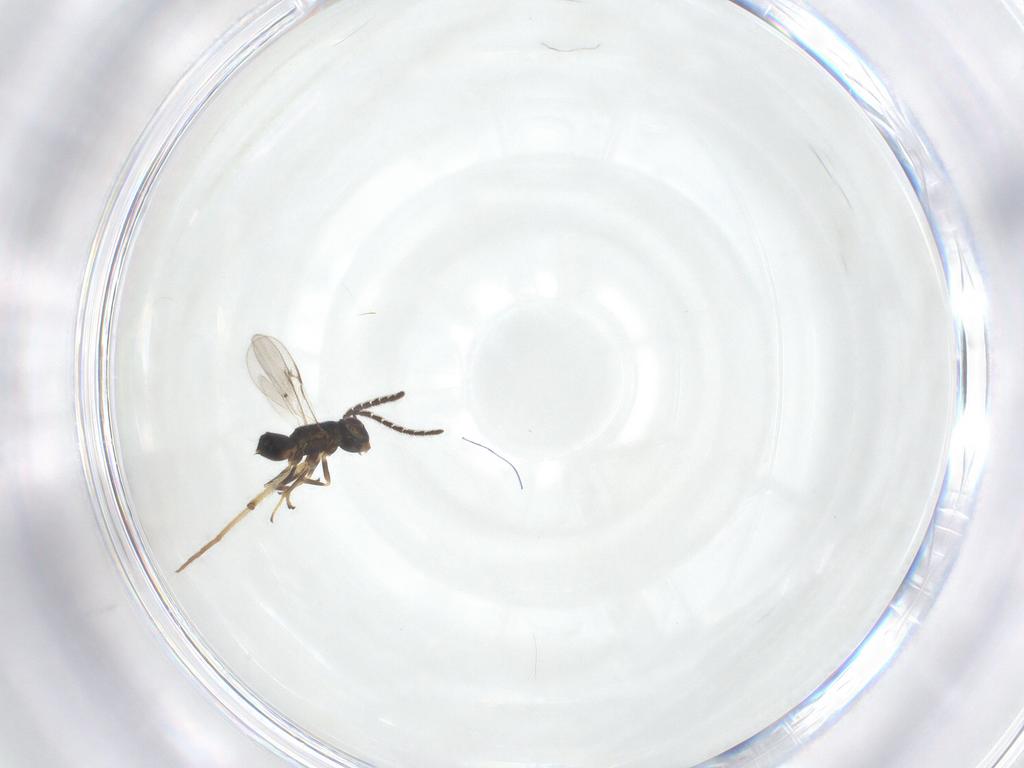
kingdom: Animalia
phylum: Arthropoda
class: Insecta
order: Hymenoptera
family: Encyrtidae
